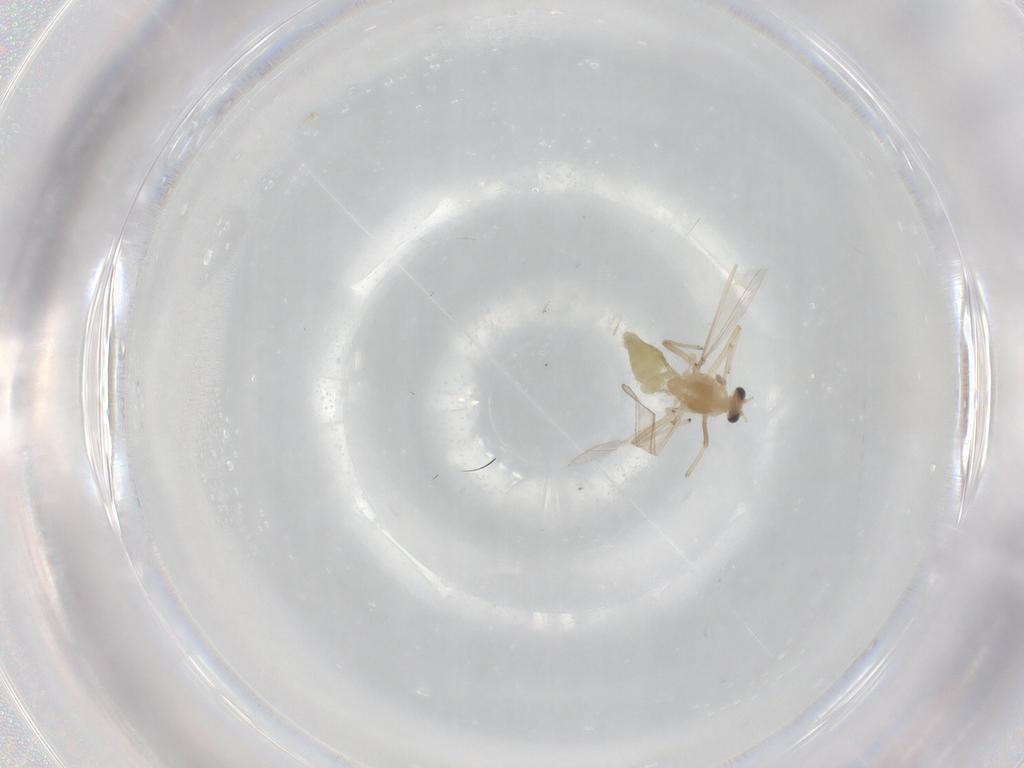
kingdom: Animalia
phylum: Arthropoda
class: Insecta
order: Diptera
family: Chironomidae
